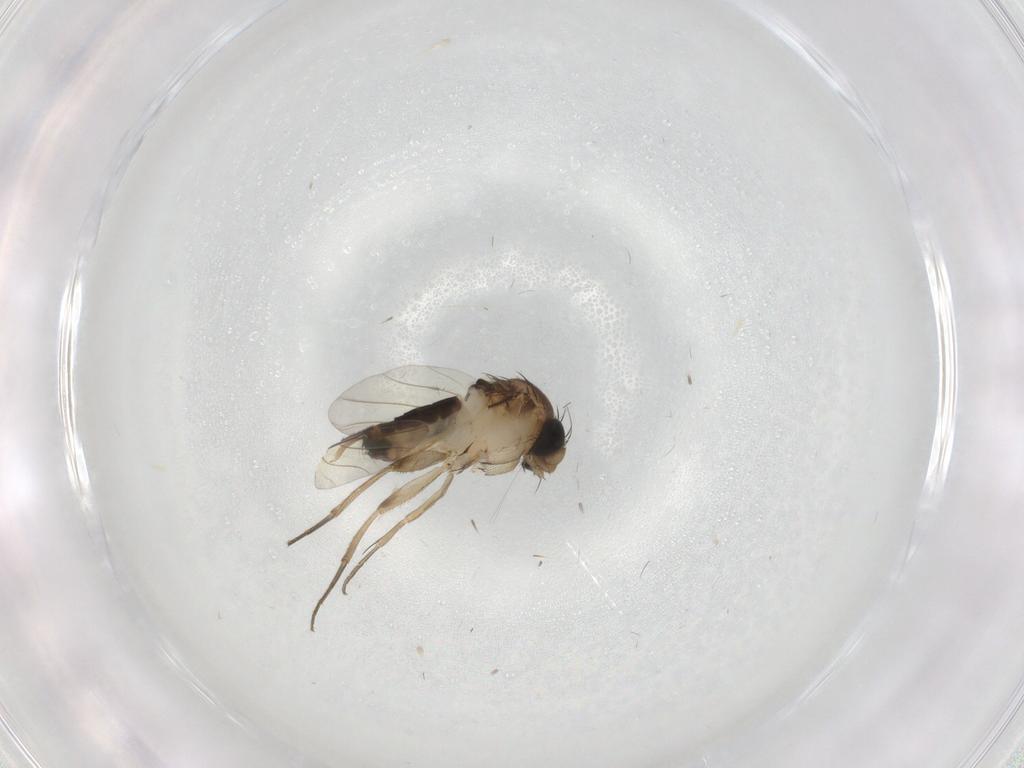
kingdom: Animalia
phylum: Arthropoda
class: Insecta
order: Diptera
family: Phoridae
